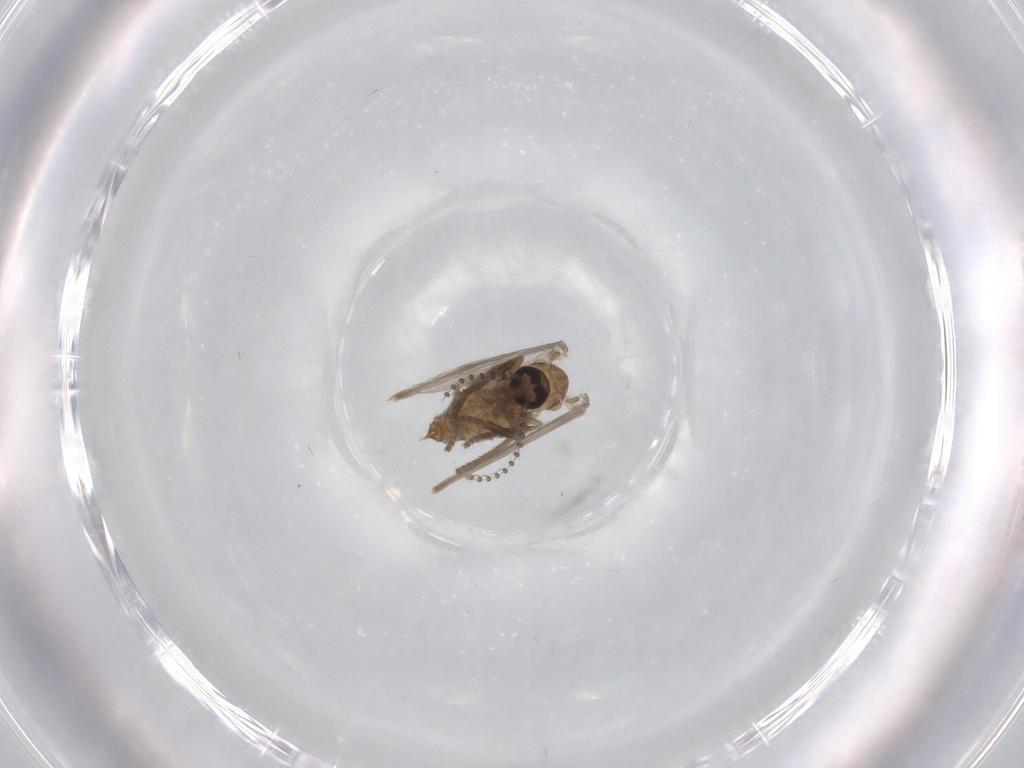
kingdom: Animalia
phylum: Arthropoda
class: Insecta
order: Diptera
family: Psychodidae
